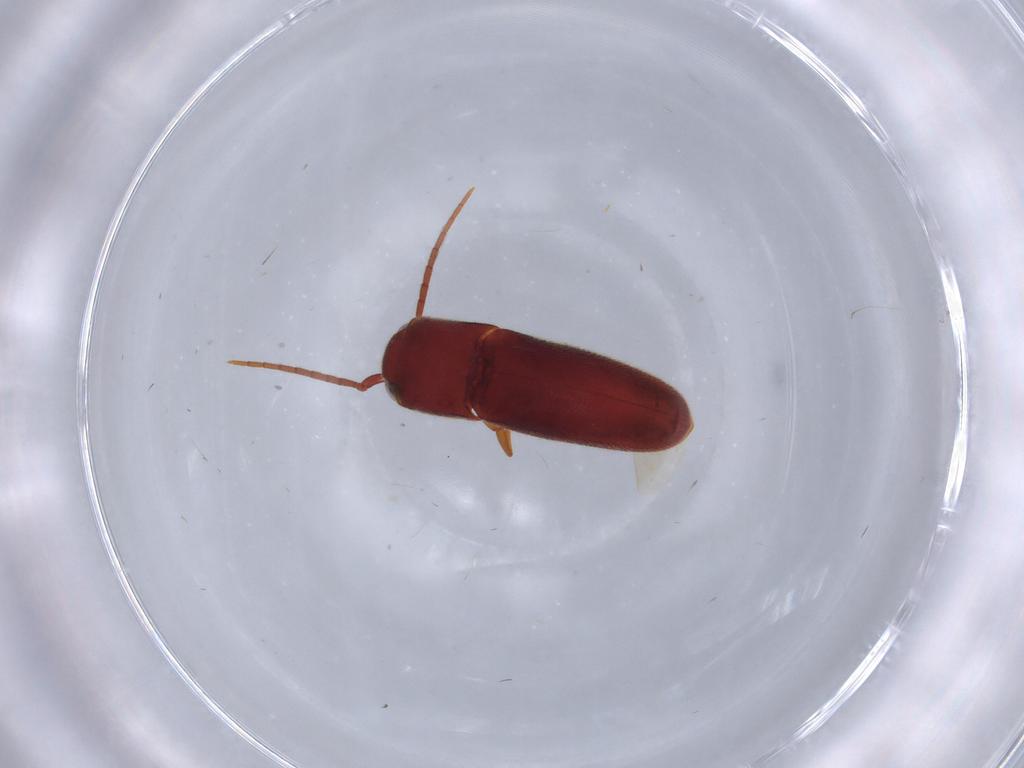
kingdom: Animalia
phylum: Arthropoda
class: Insecta
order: Coleoptera
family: Eucnemidae
